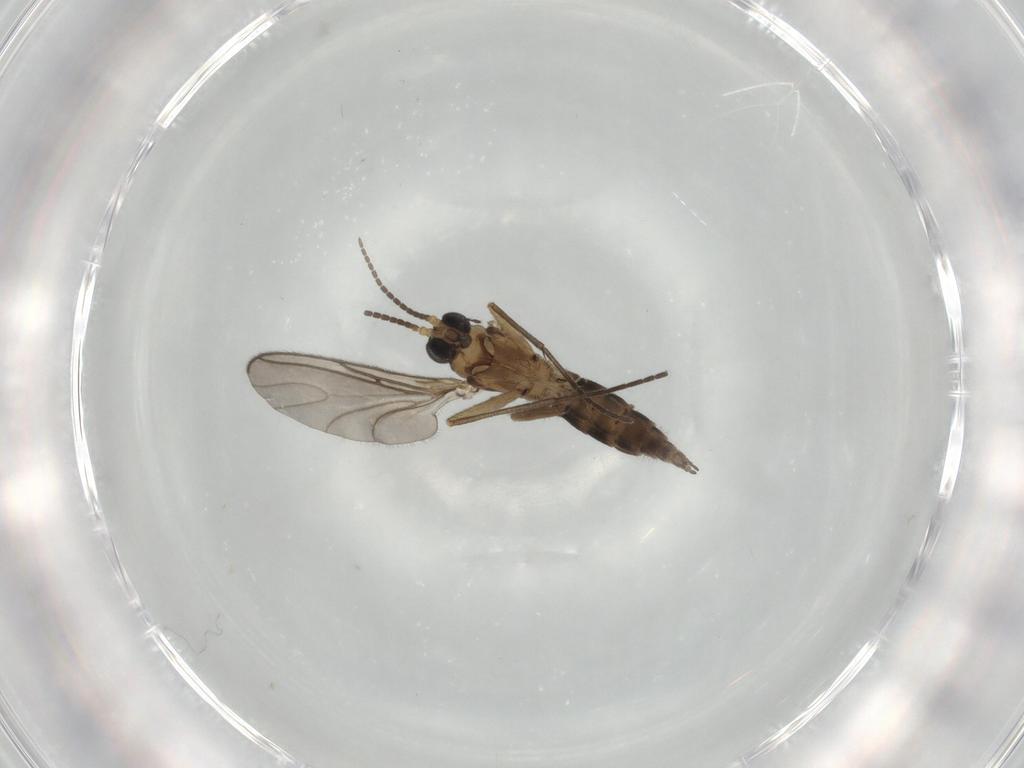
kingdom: Animalia
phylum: Arthropoda
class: Insecta
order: Diptera
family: Sciaridae
